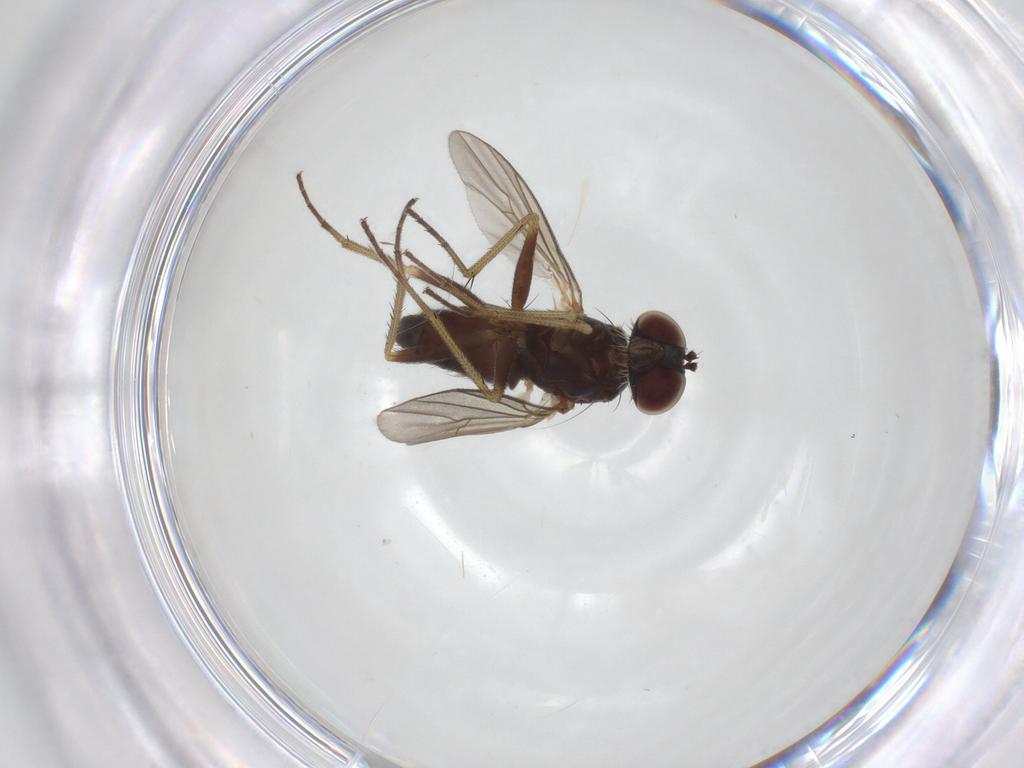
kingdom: Animalia
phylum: Arthropoda
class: Insecta
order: Diptera
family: Dolichopodidae
